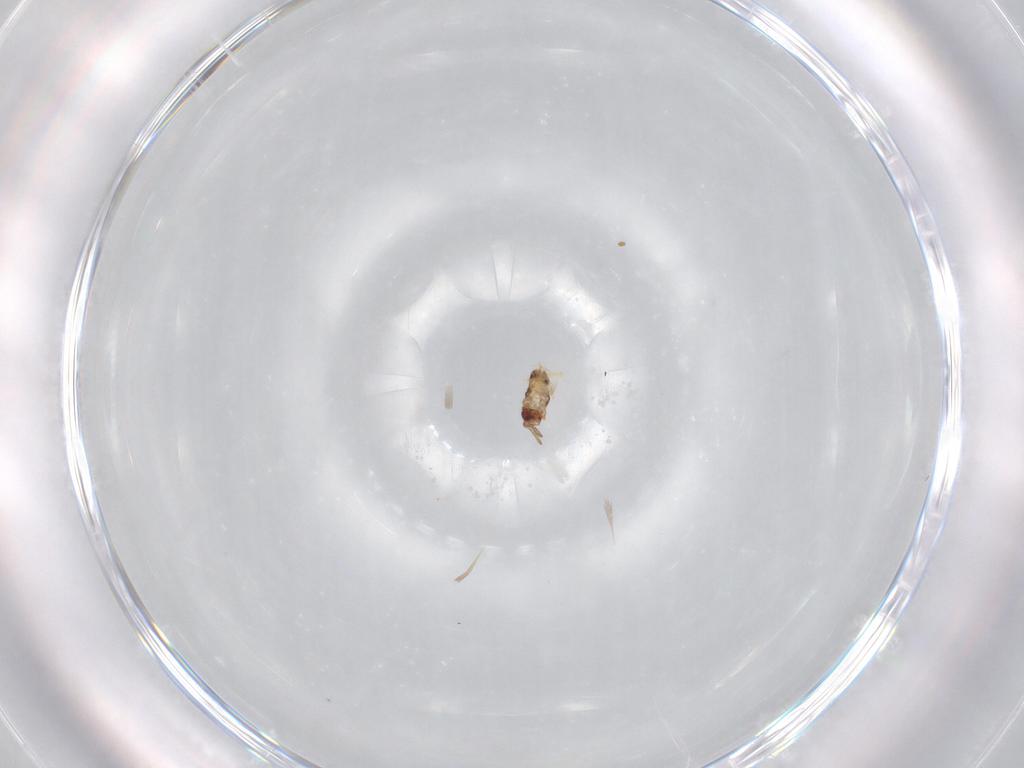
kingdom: Animalia
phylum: Arthropoda
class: Insecta
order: Hymenoptera
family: Aphelinidae
